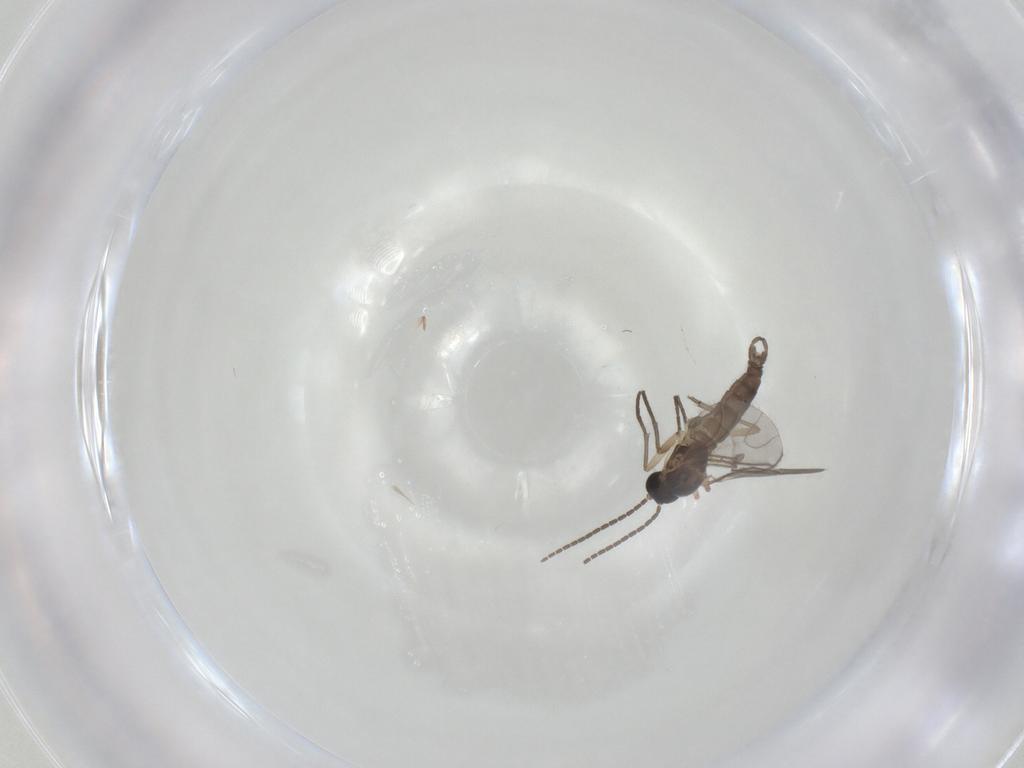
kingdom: Animalia
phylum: Arthropoda
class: Insecta
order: Diptera
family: Sciaridae
